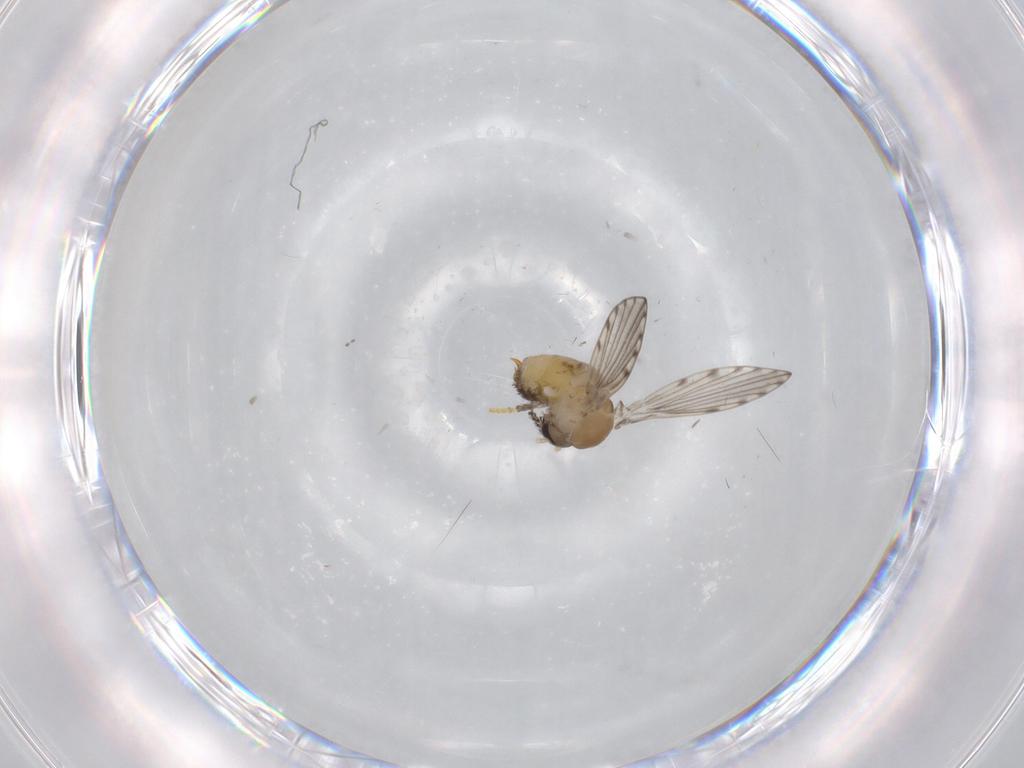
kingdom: Animalia
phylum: Arthropoda
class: Insecta
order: Diptera
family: Psychodidae
